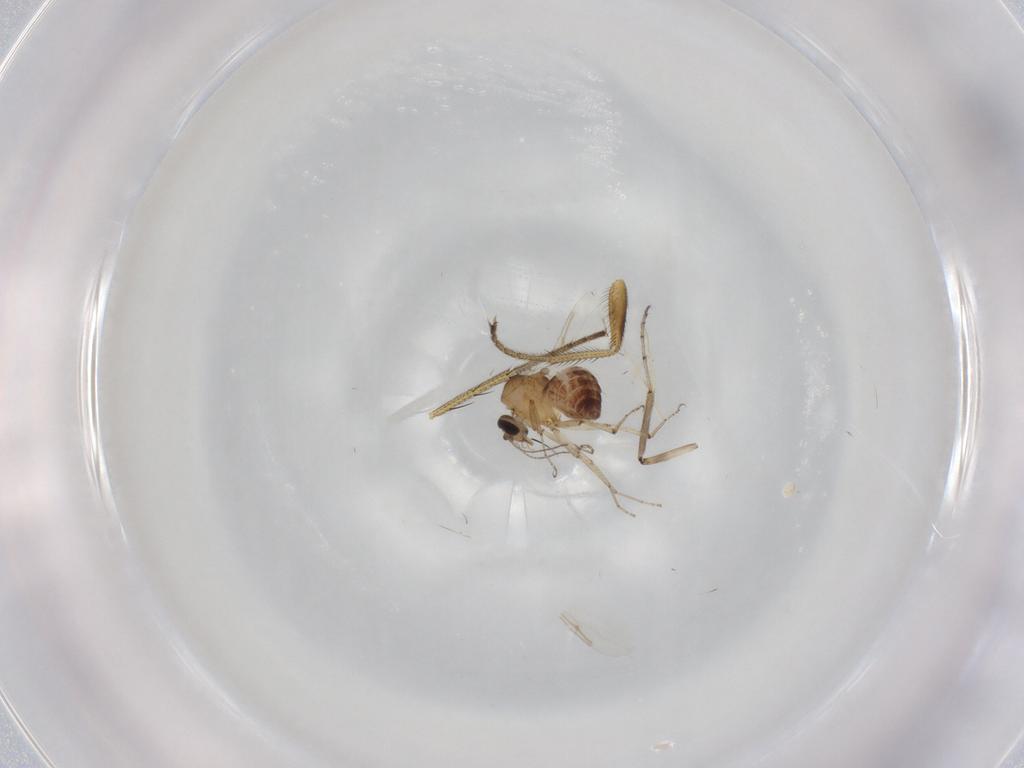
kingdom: Animalia
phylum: Arthropoda
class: Insecta
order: Diptera
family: Ceratopogonidae
